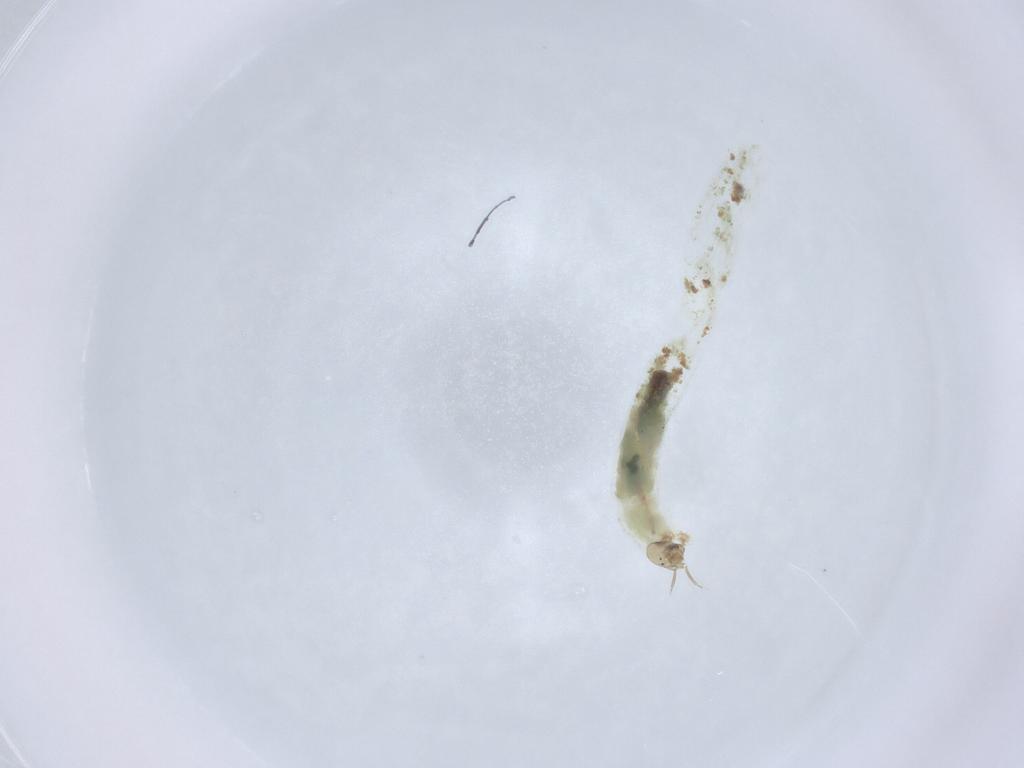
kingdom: Animalia
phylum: Arthropoda
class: Insecta
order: Diptera
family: Chironomidae
